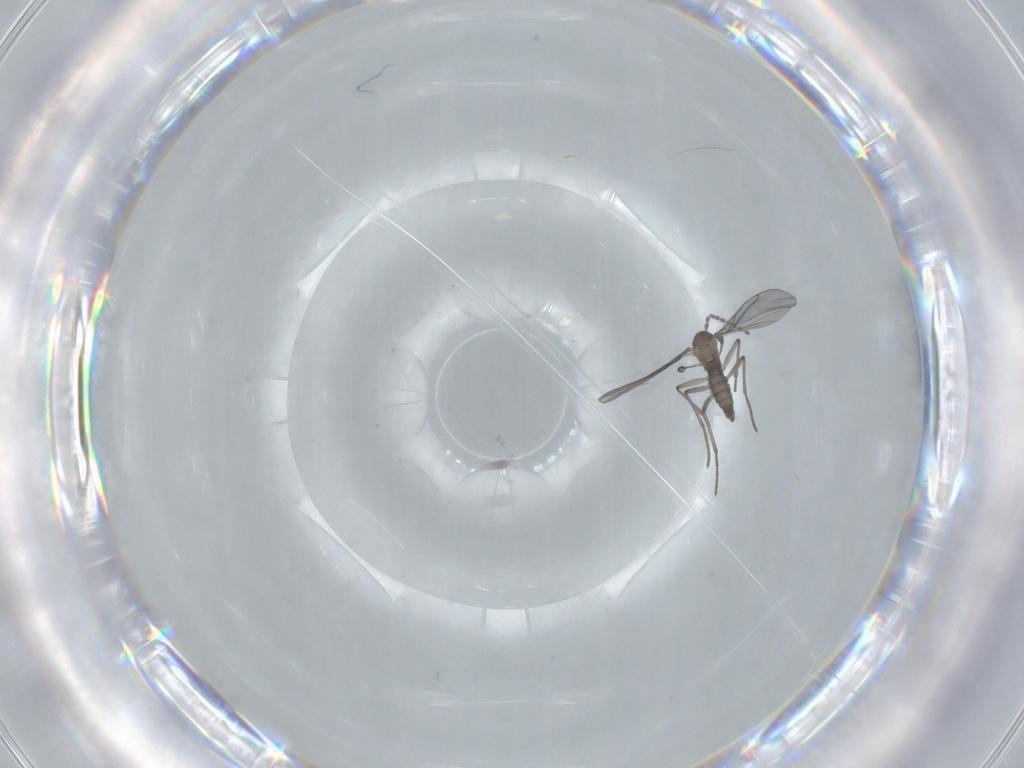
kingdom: Animalia
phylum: Arthropoda
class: Insecta
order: Diptera
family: Sciaridae
